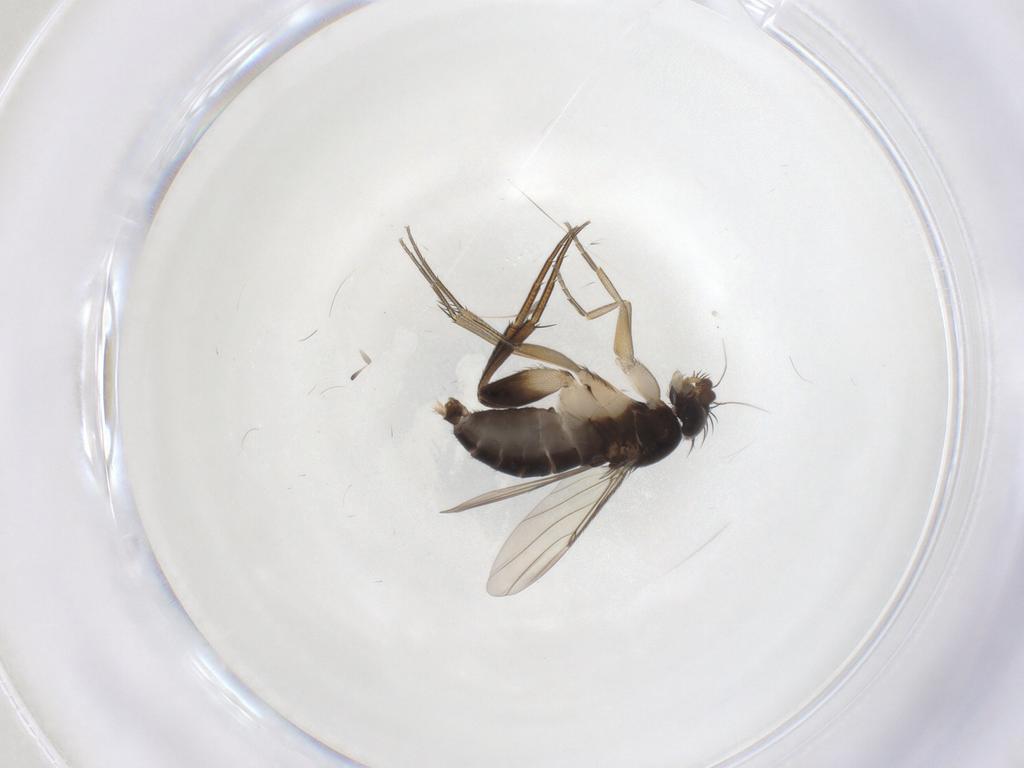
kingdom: Animalia
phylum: Arthropoda
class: Insecta
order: Diptera
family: Phoridae
